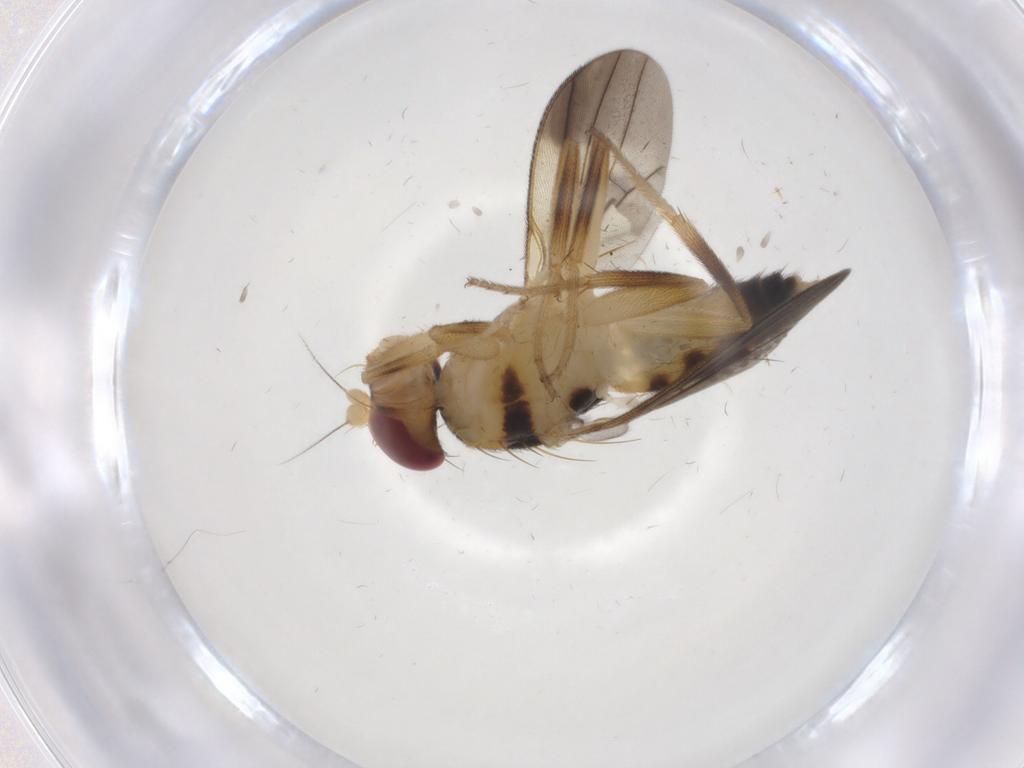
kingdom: Animalia
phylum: Arthropoda
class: Insecta
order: Diptera
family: Clusiidae
